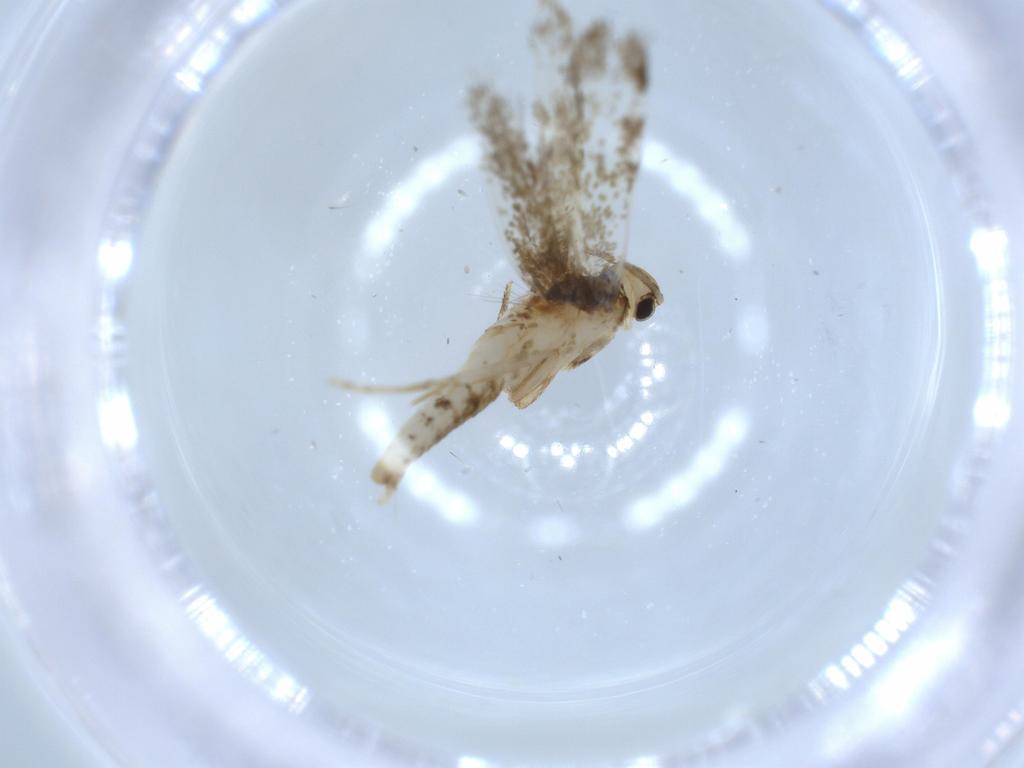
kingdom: Animalia
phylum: Arthropoda
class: Insecta
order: Lepidoptera
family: Tineidae
